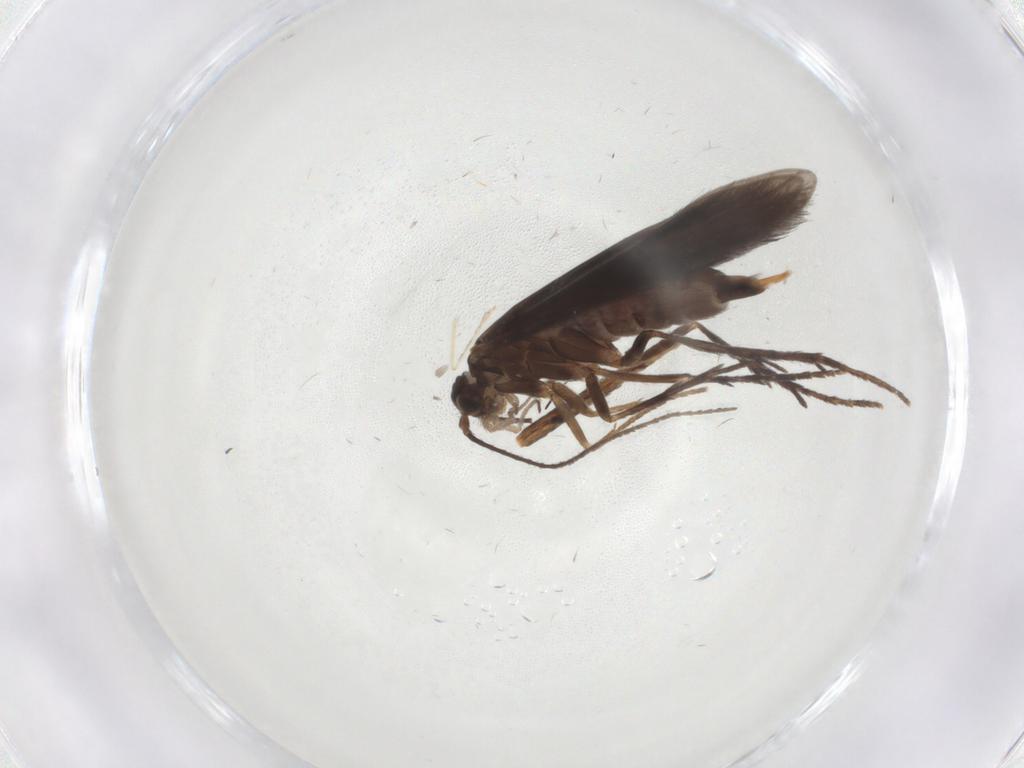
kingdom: Animalia
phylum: Arthropoda
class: Insecta
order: Trichoptera
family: Xiphocentronidae
